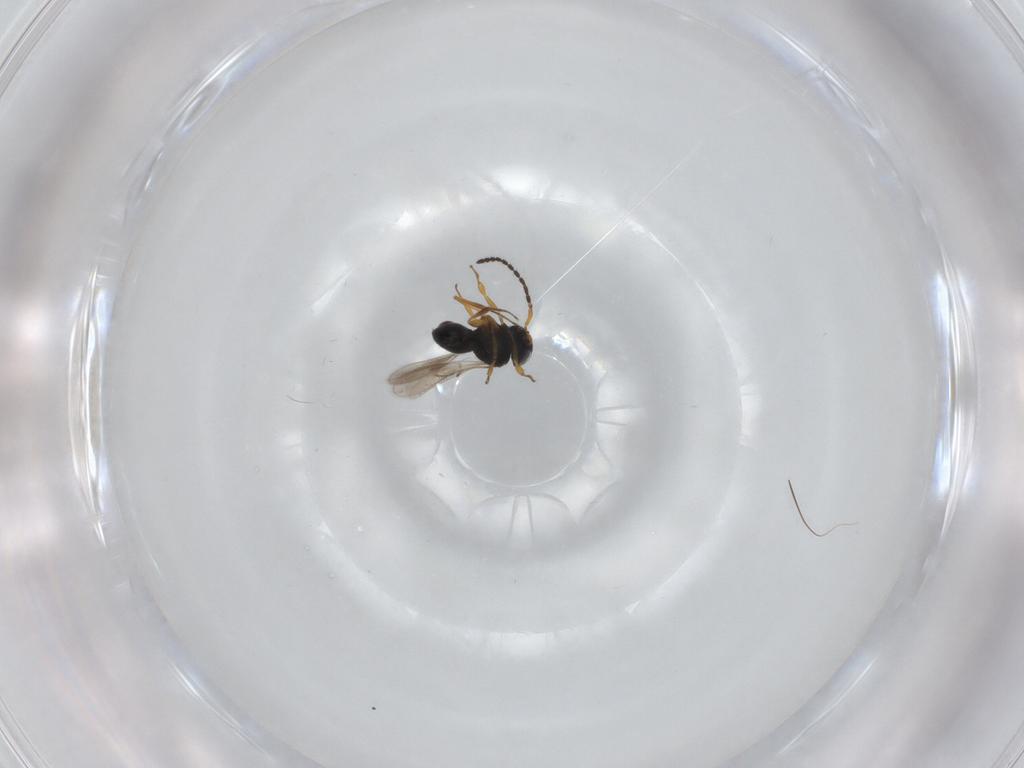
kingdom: Animalia
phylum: Arthropoda
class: Insecta
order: Hymenoptera
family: Scelionidae
